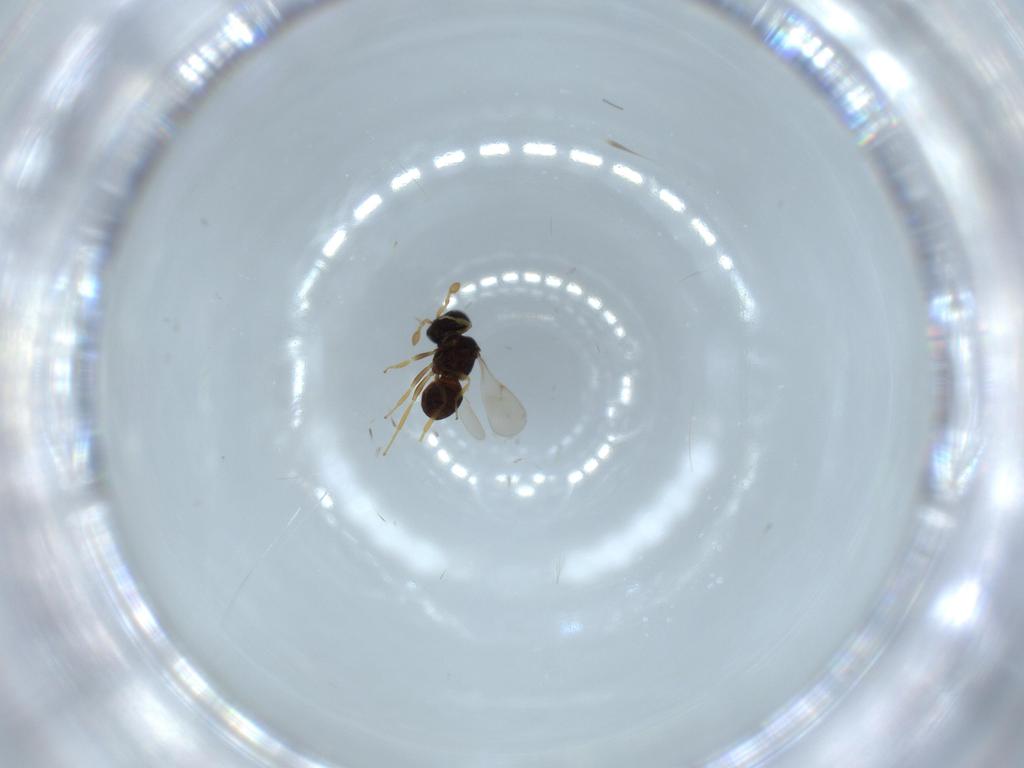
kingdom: Animalia
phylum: Arthropoda
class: Insecta
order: Hymenoptera
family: Scelionidae
